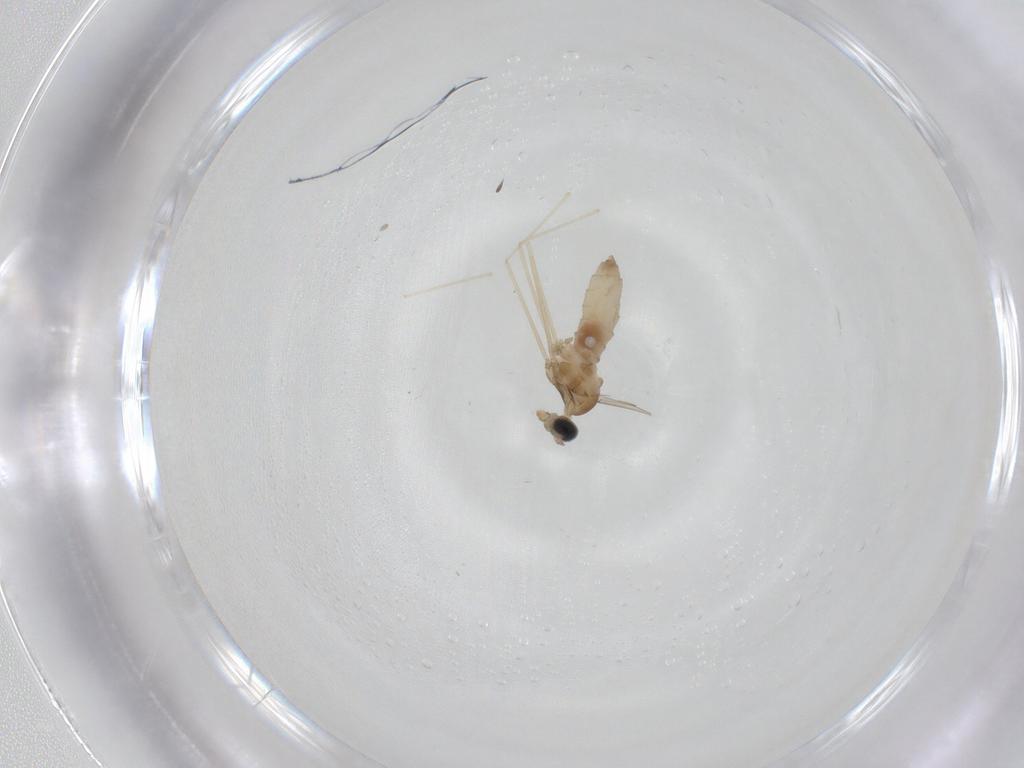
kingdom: Animalia
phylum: Arthropoda
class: Insecta
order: Diptera
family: Cecidomyiidae
